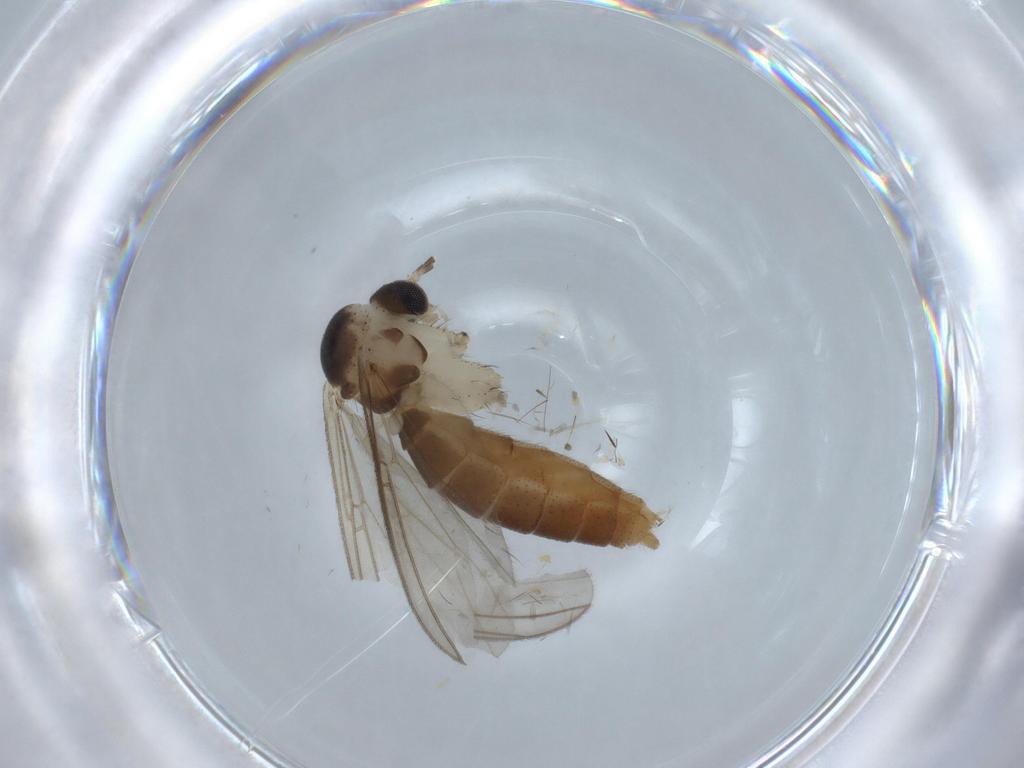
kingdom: Animalia
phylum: Arthropoda
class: Insecta
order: Diptera
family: Mycetophilidae
